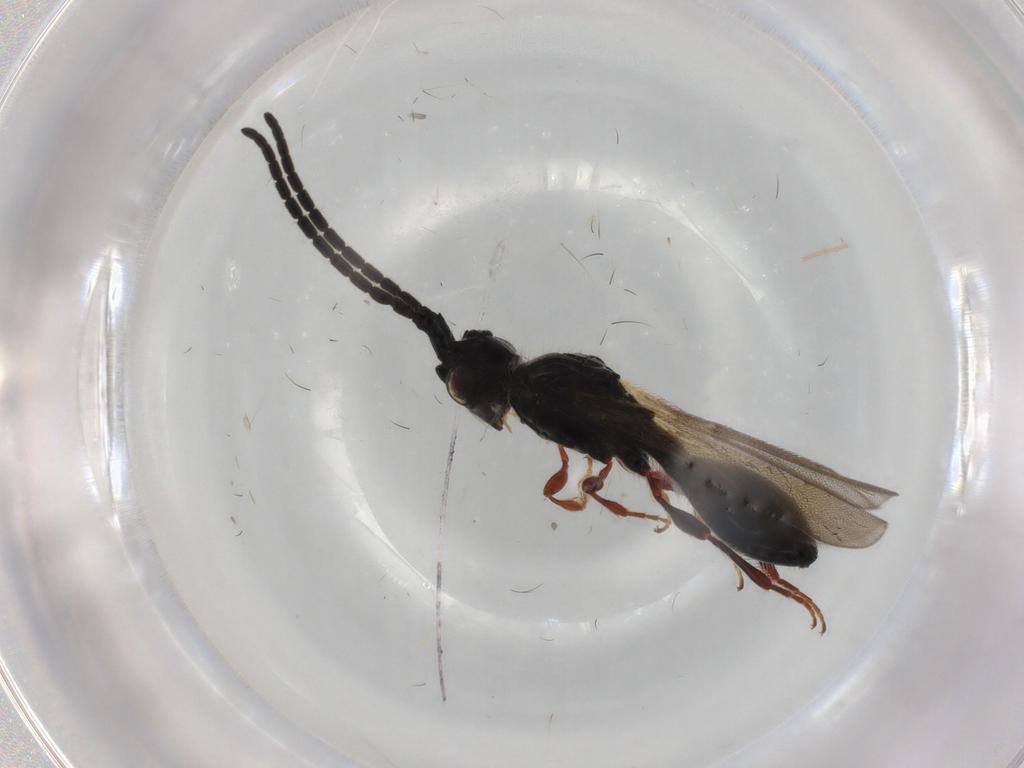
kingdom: Animalia
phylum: Arthropoda
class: Insecta
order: Hymenoptera
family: Diapriidae
